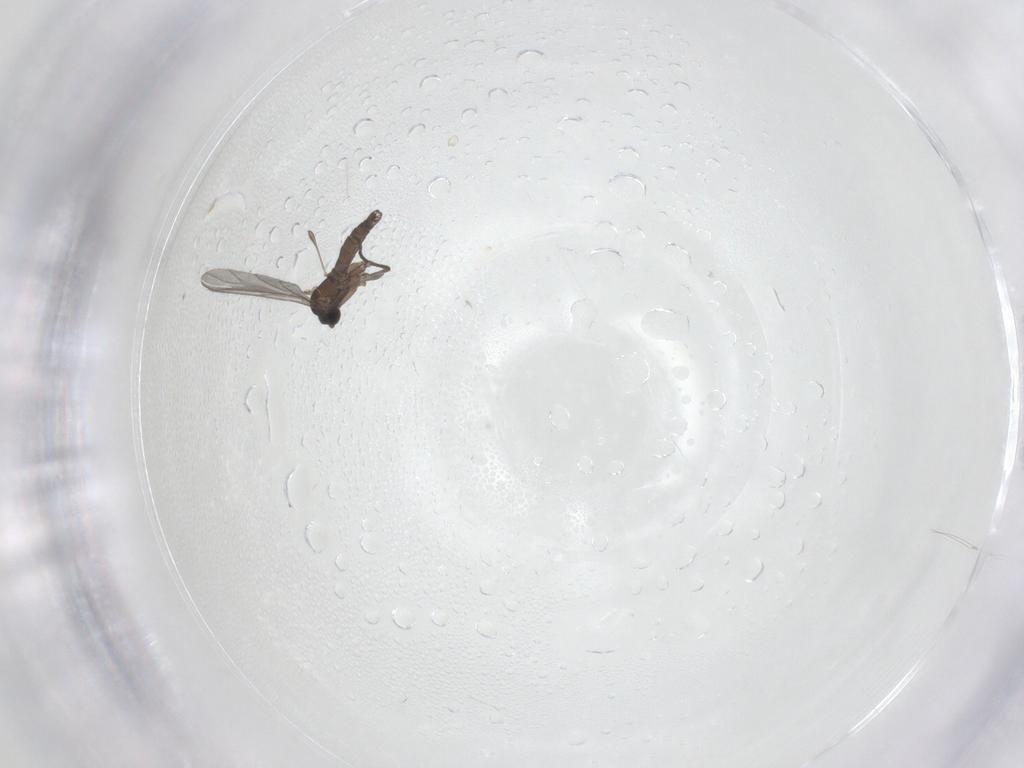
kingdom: Animalia
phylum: Arthropoda
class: Insecta
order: Diptera
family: Sciaridae
